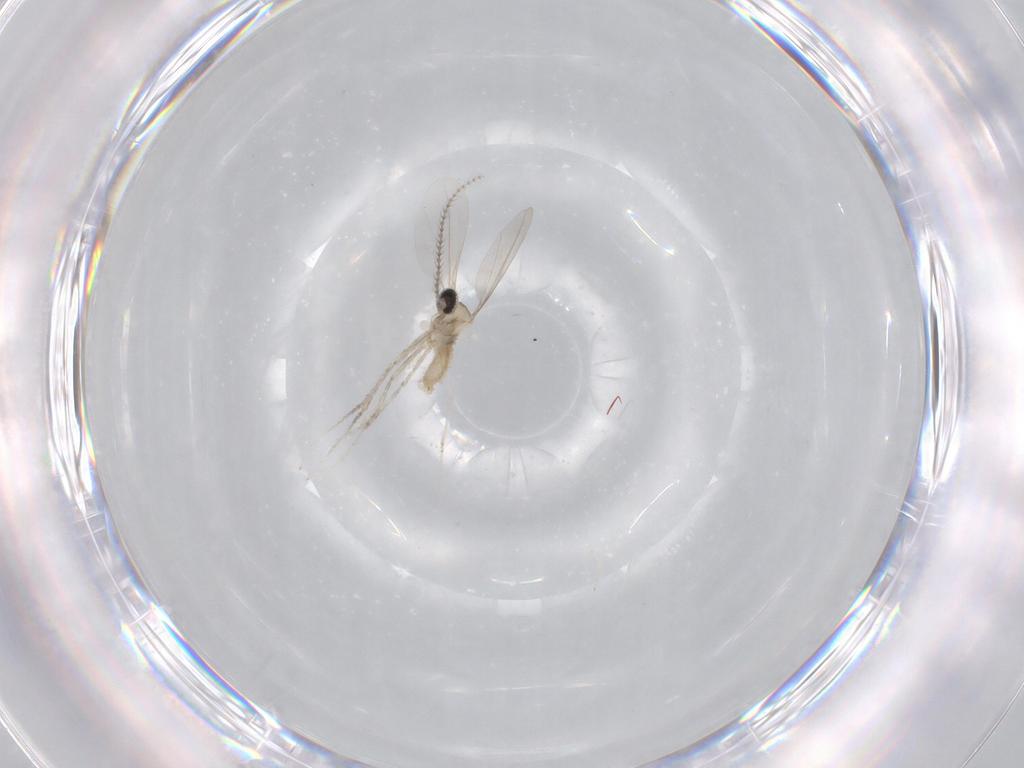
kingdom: Animalia
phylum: Arthropoda
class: Insecta
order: Diptera
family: Cecidomyiidae
